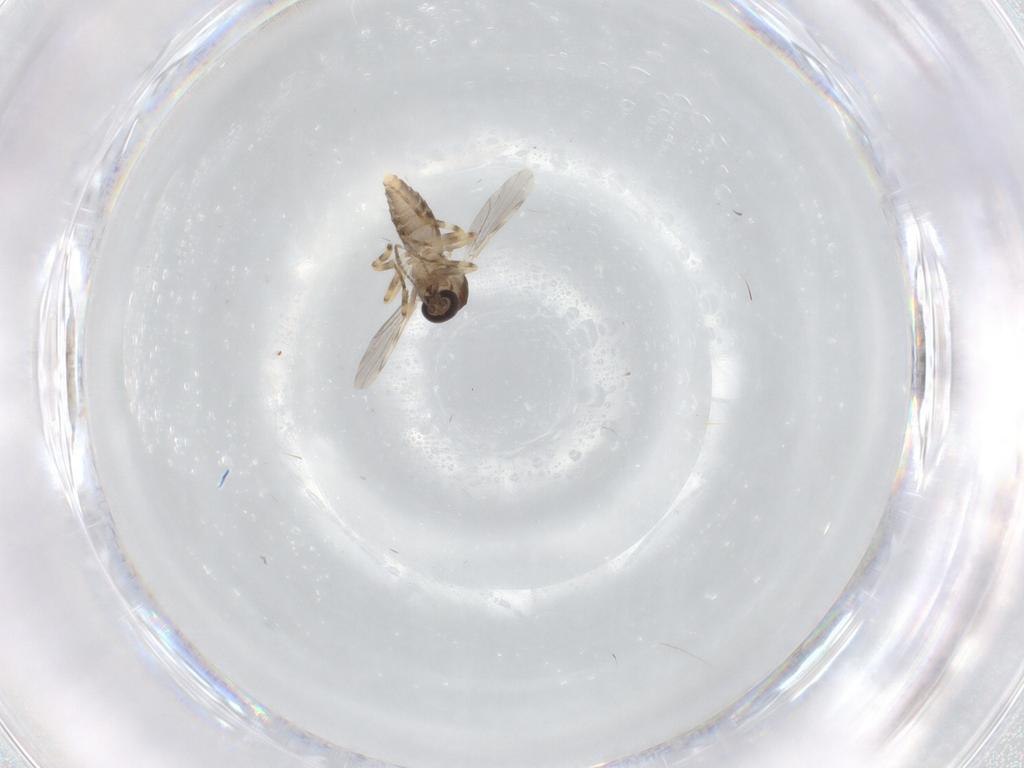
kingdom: Animalia
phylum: Arthropoda
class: Insecta
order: Diptera
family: Ceratopogonidae
